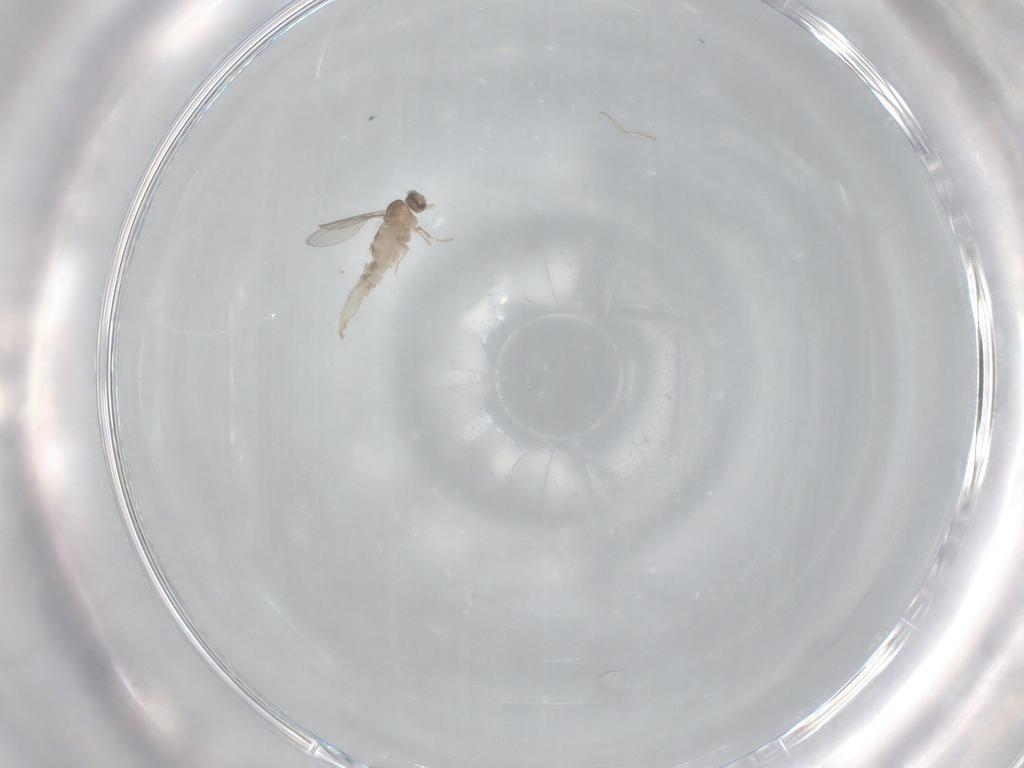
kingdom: Animalia
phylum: Arthropoda
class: Insecta
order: Diptera
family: Cecidomyiidae
